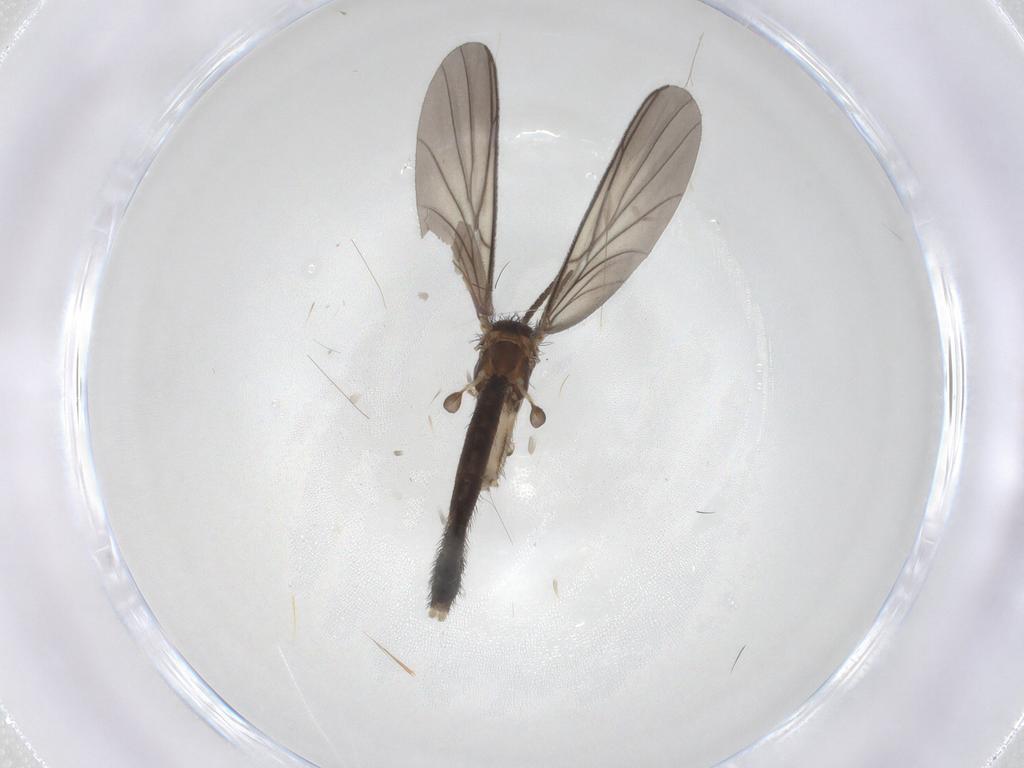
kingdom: Animalia
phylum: Arthropoda
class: Insecta
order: Diptera
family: Keroplatidae
